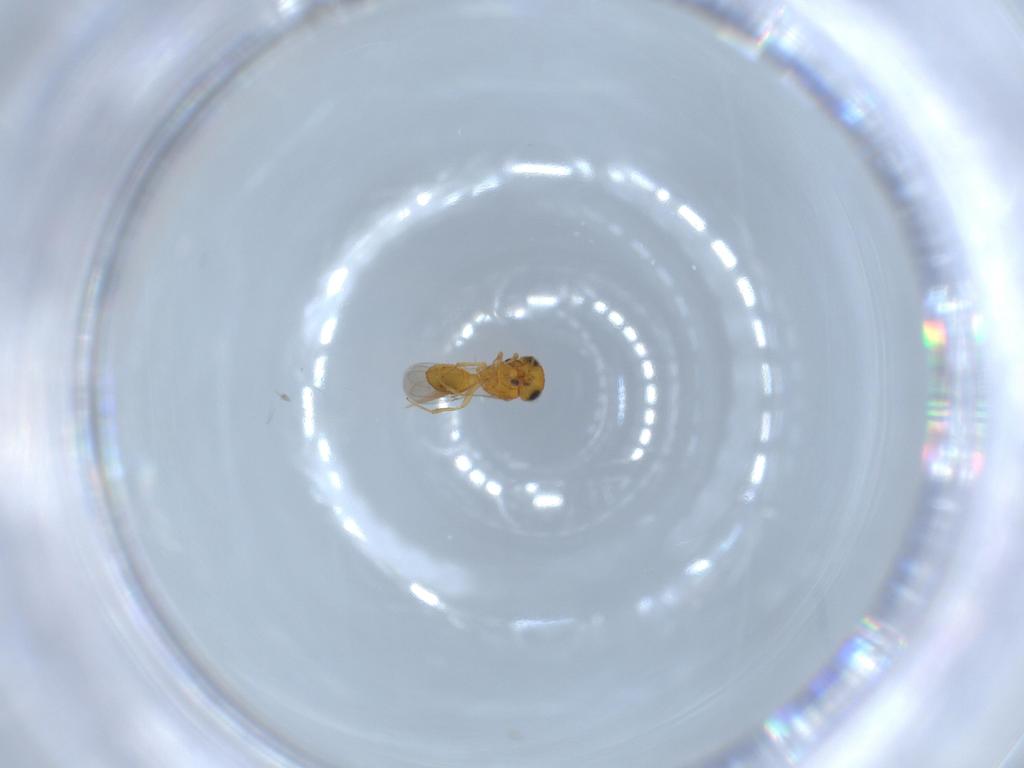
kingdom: Animalia
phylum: Arthropoda
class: Insecta
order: Hymenoptera
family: Scelionidae
